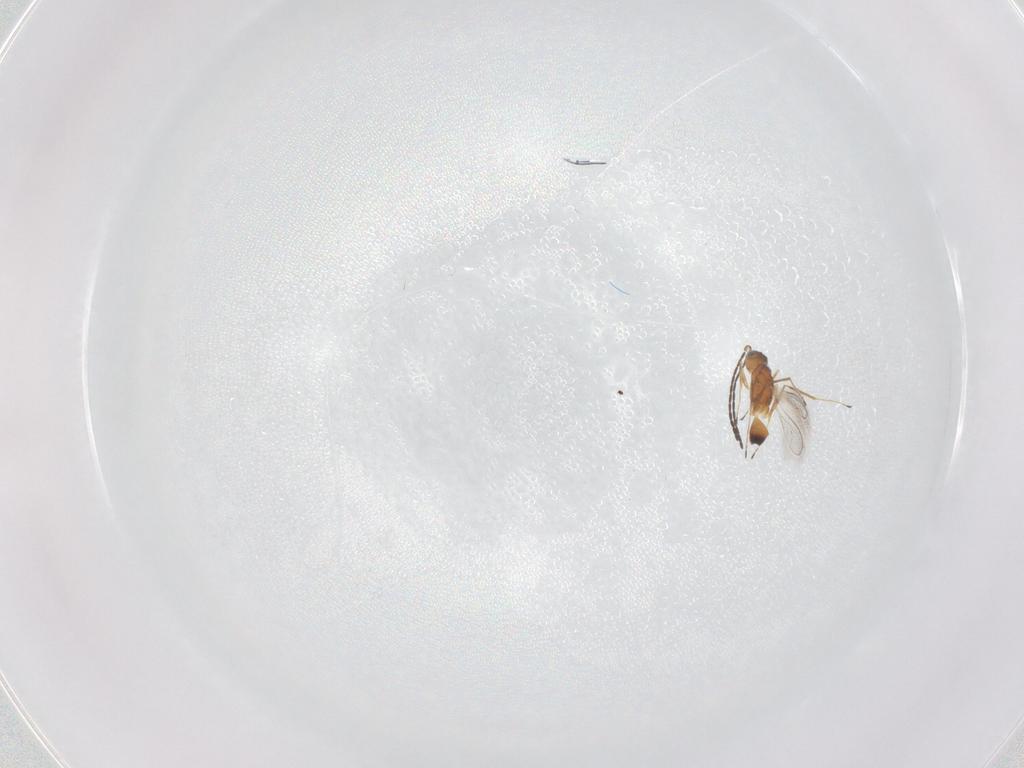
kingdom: Animalia
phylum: Arthropoda
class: Insecta
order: Hymenoptera
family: Mymaridae
